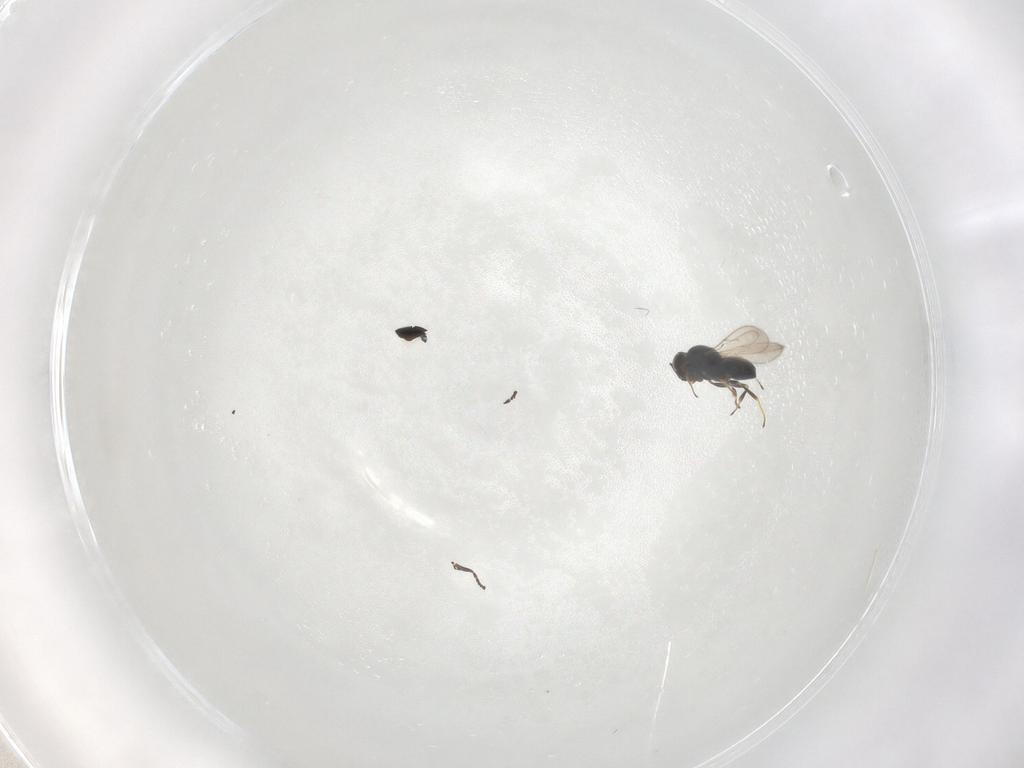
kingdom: Animalia
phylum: Arthropoda
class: Insecta
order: Hymenoptera
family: Scelionidae
